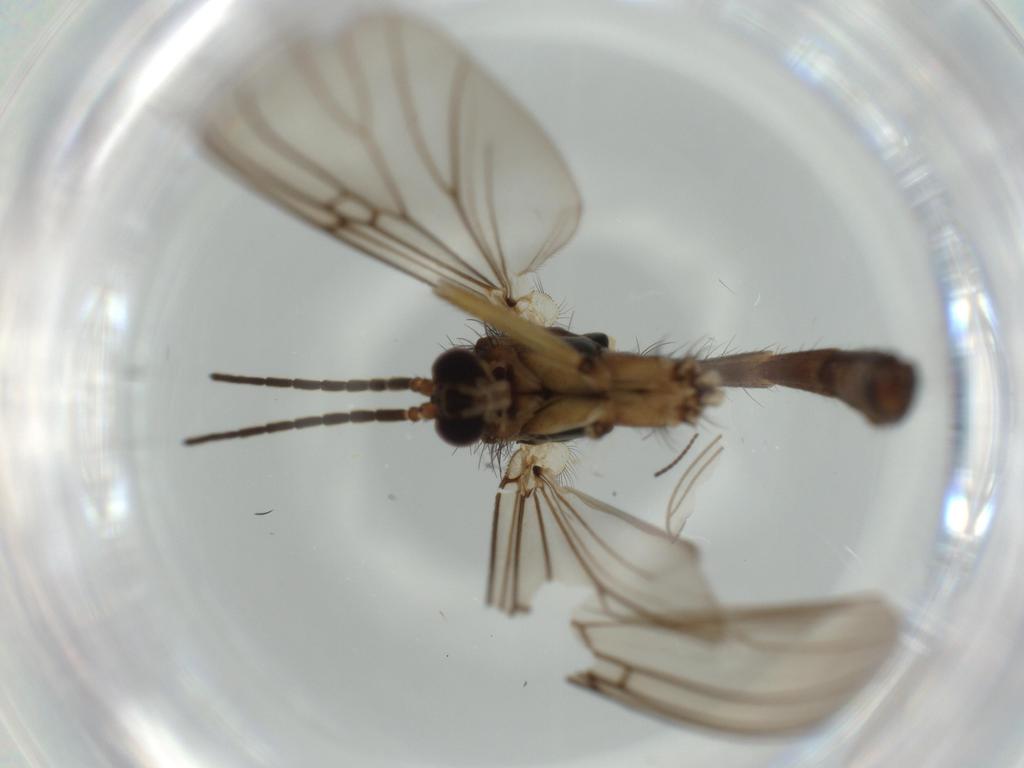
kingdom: Animalia
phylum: Arthropoda
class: Insecta
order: Diptera
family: Ceratopogonidae
